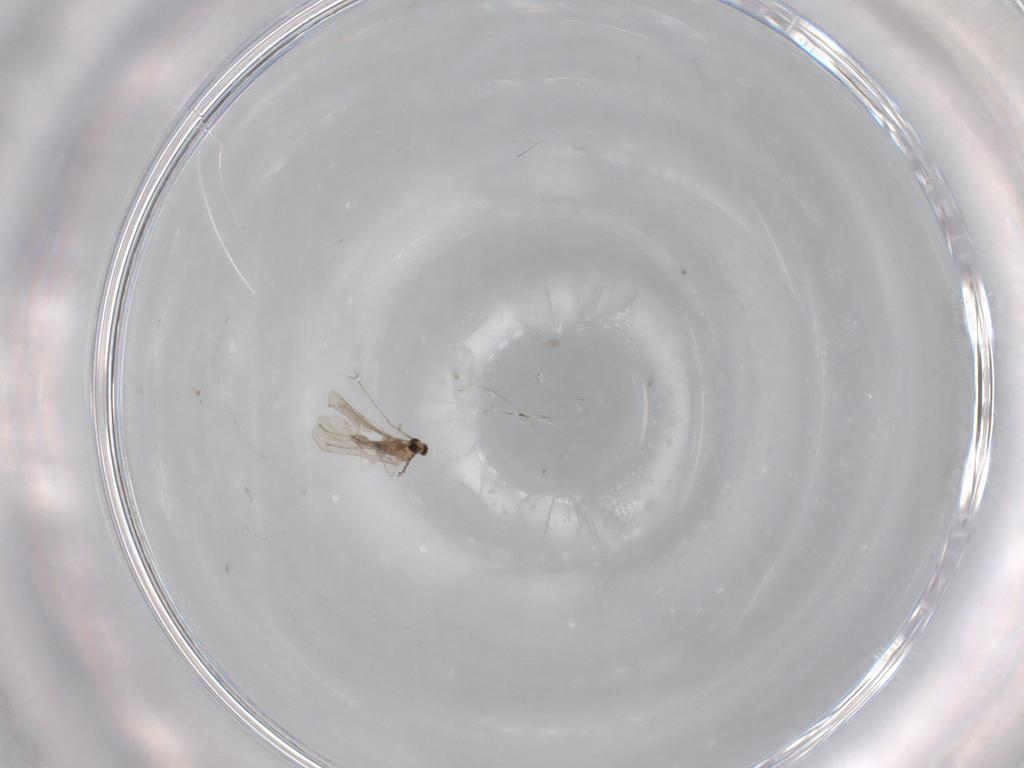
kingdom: Animalia
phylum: Arthropoda
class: Insecta
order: Diptera
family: Cecidomyiidae
